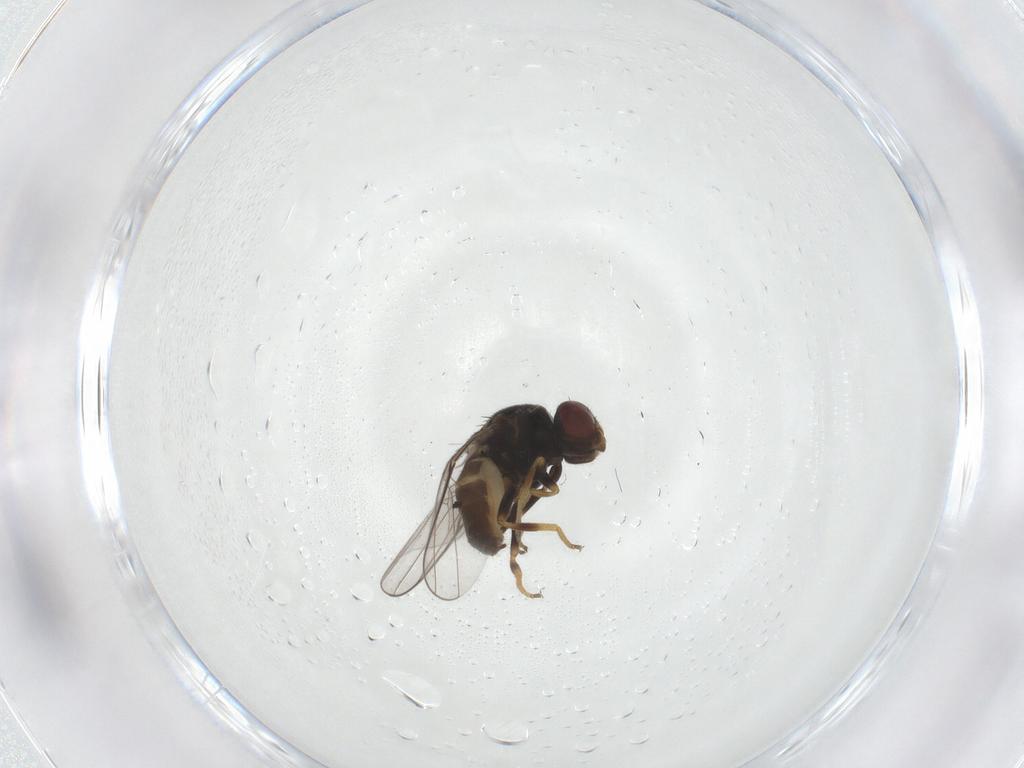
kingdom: Animalia
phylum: Arthropoda
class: Insecta
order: Diptera
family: Chloropidae
